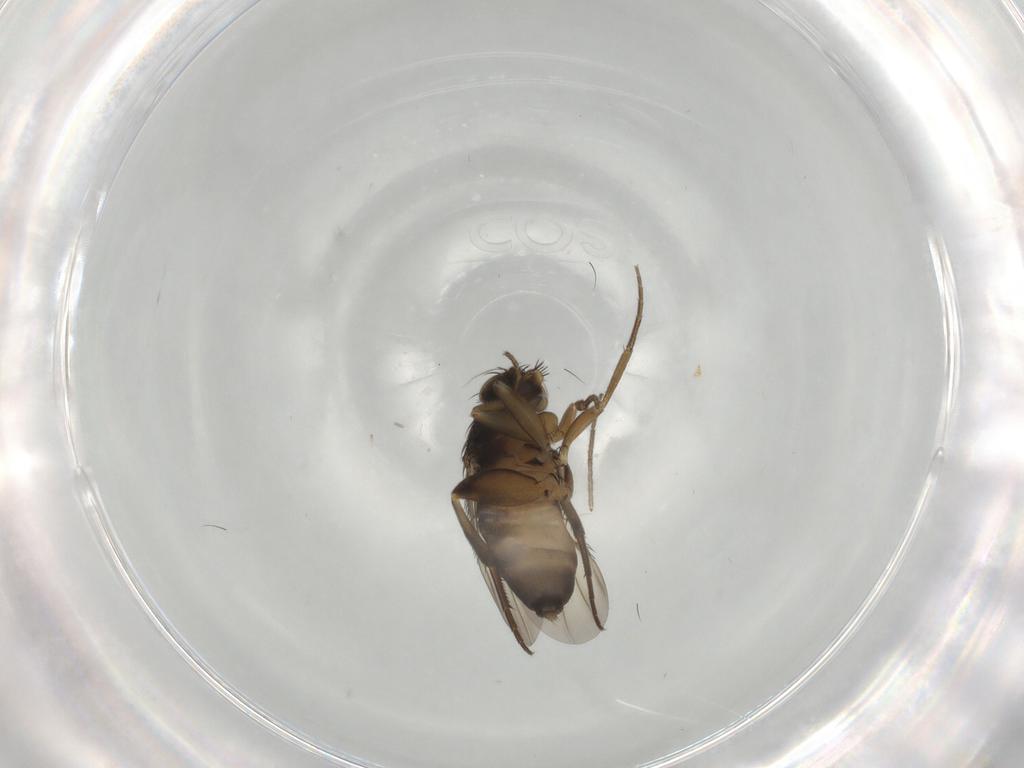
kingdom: Animalia
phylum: Arthropoda
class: Insecta
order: Diptera
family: Phoridae
